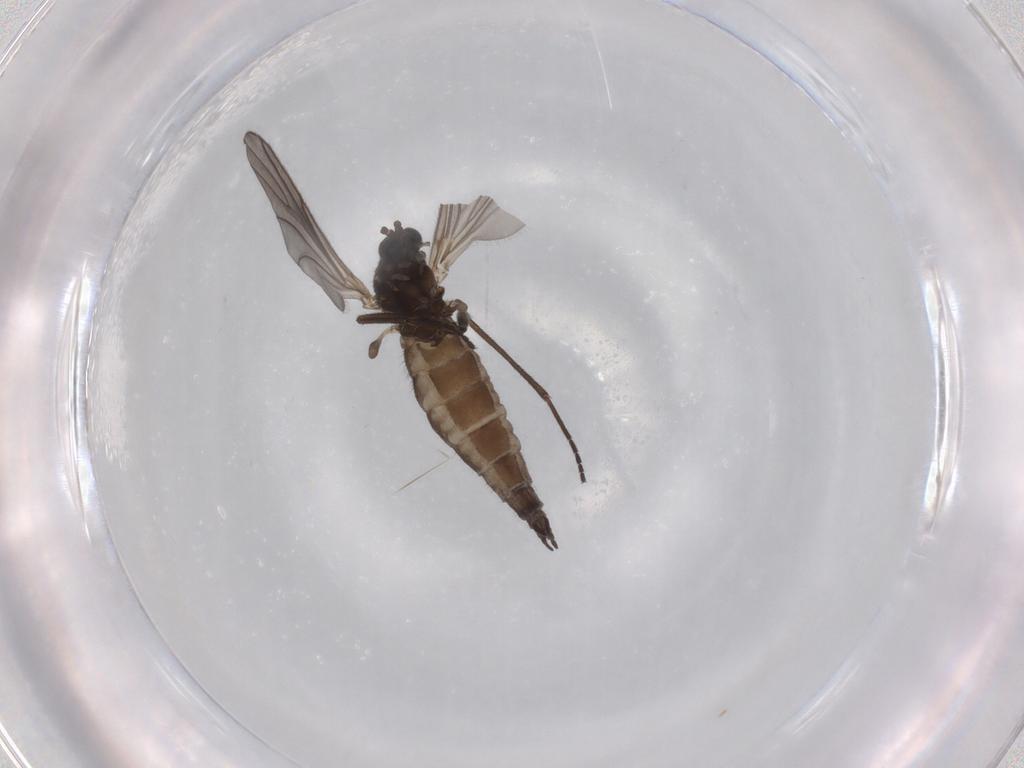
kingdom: Animalia
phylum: Arthropoda
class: Insecta
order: Diptera
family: Sciaridae
